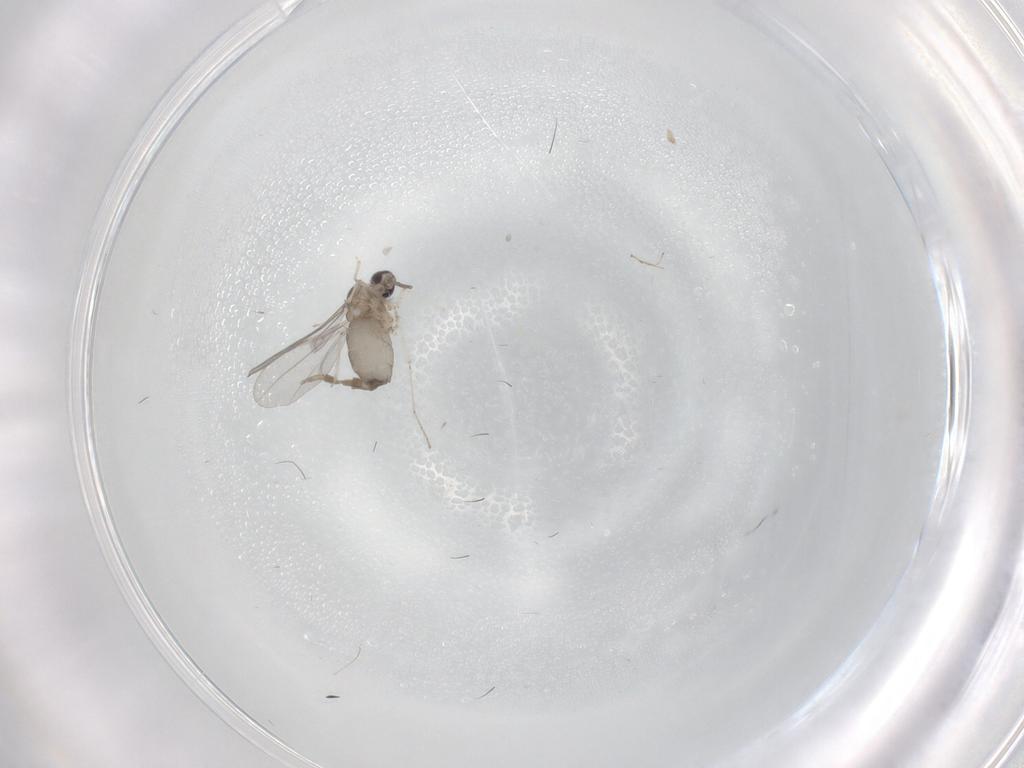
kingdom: Animalia
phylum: Arthropoda
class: Insecta
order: Diptera
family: Cecidomyiidae
